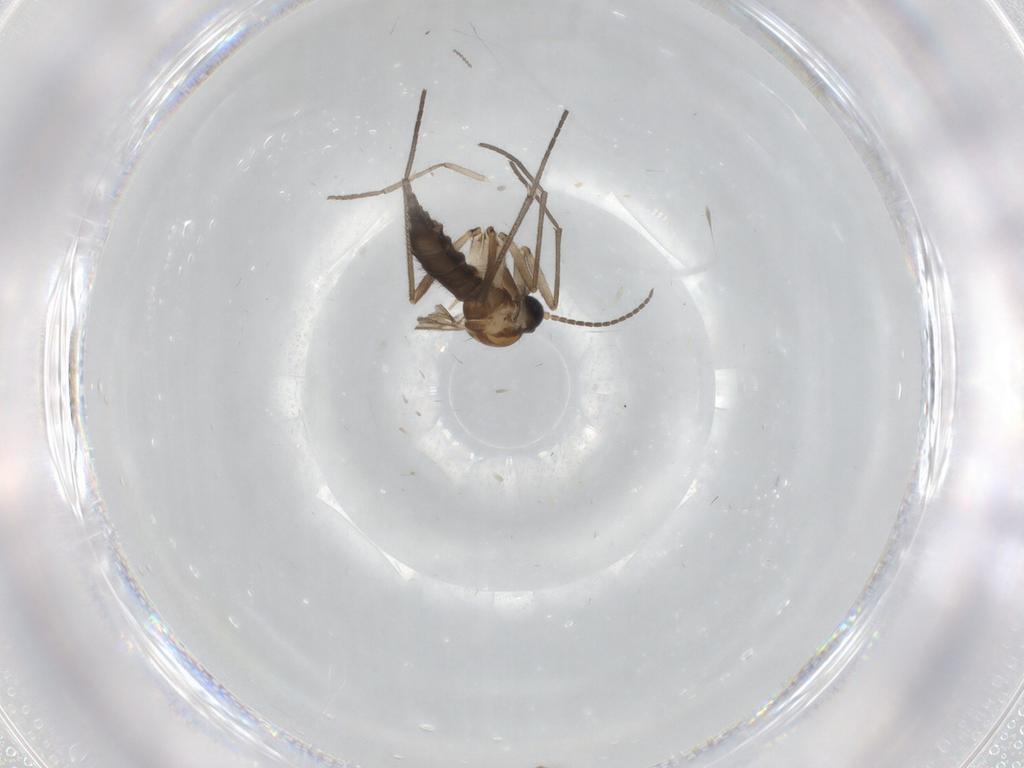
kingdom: Animalia
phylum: Arthropoda
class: Insecta
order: Diptera
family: Sciaridae
